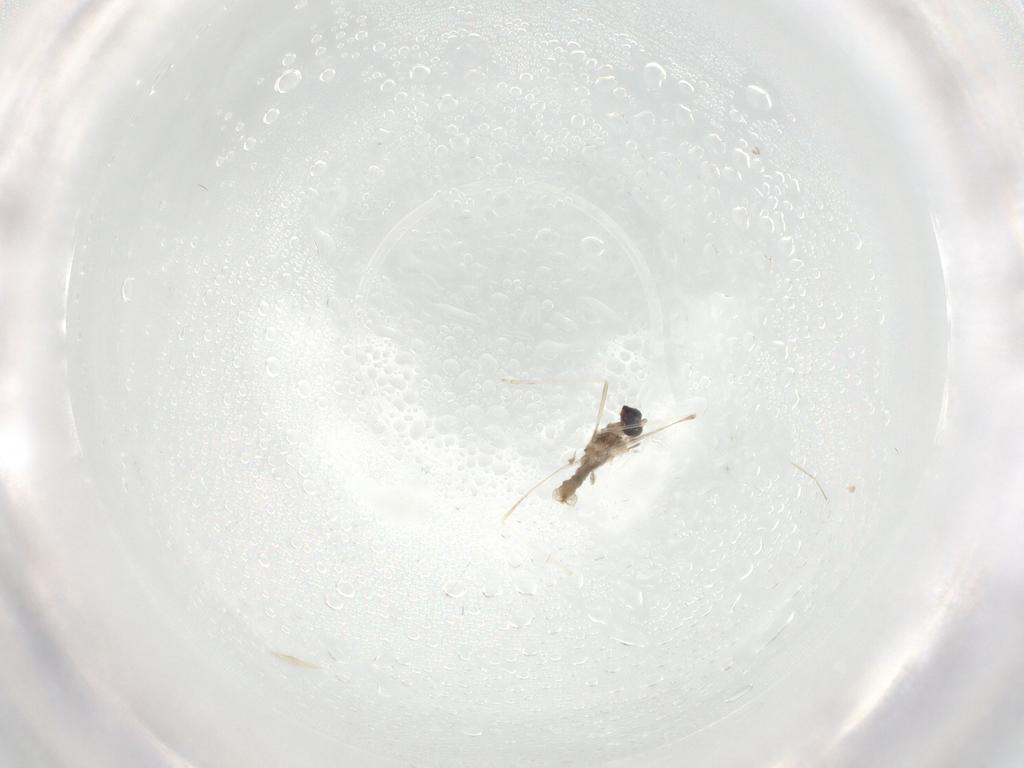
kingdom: Animalia
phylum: Arthropoda
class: Insecta
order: Diptera
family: Cecidomyiidae
